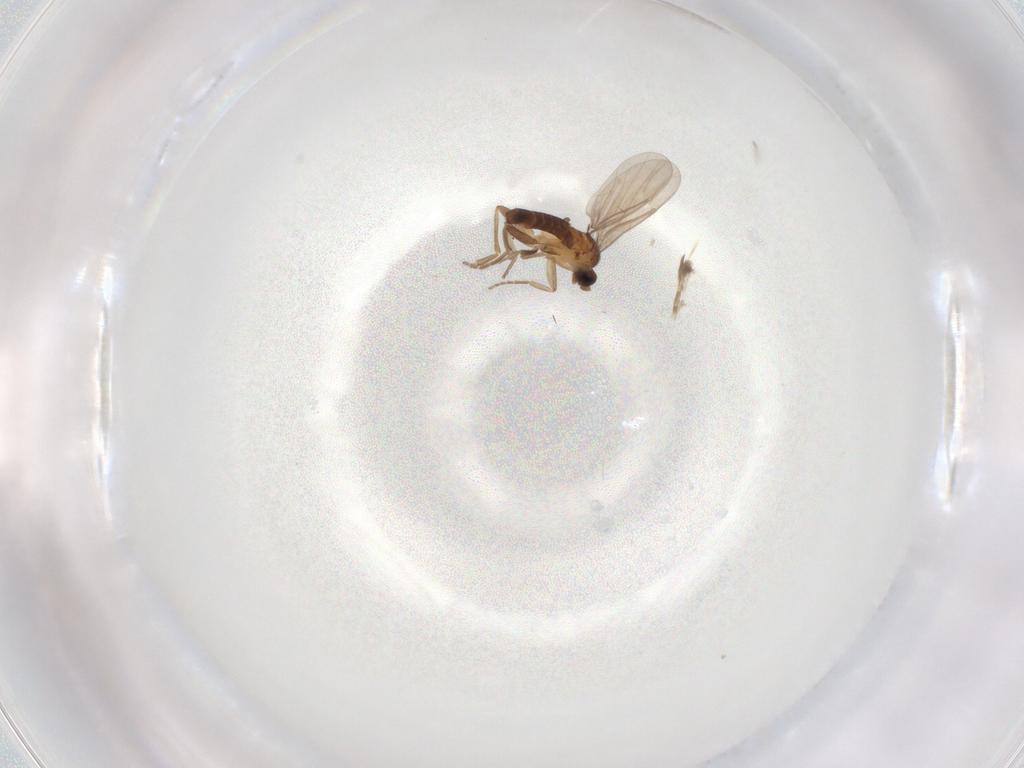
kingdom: Animalia
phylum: Arthropoda
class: Insecta
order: Diptera
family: Phoridae
